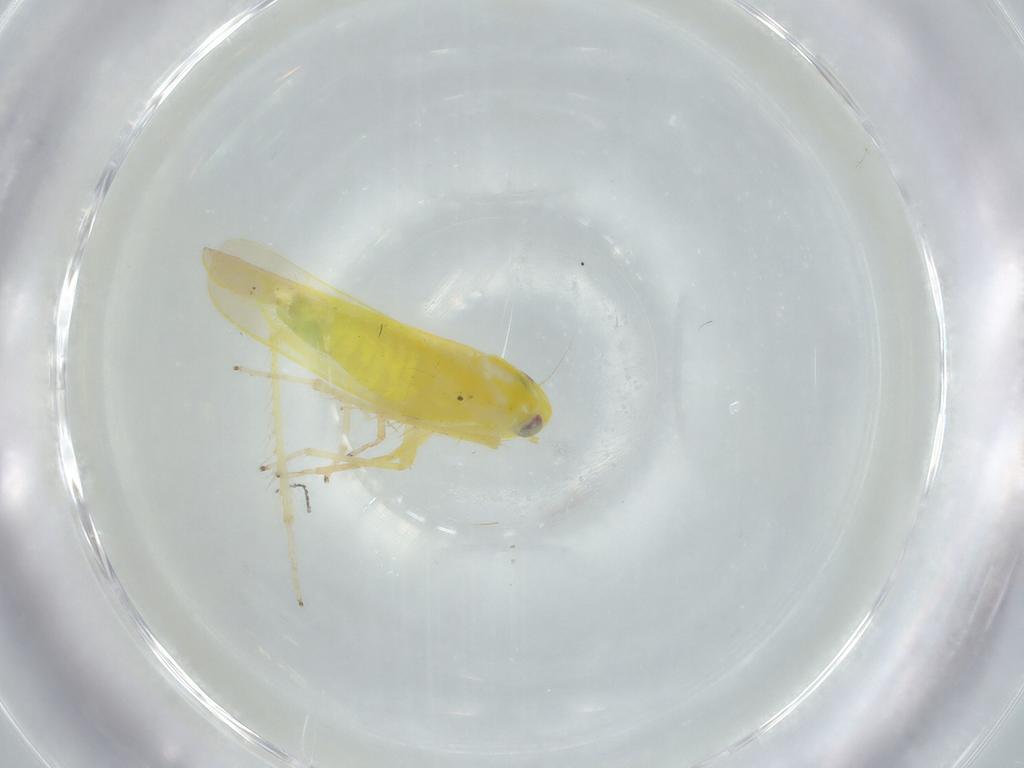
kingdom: Animalia
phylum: Arthropoda
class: Insecta
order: Hemiptera
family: Cicadellidae
